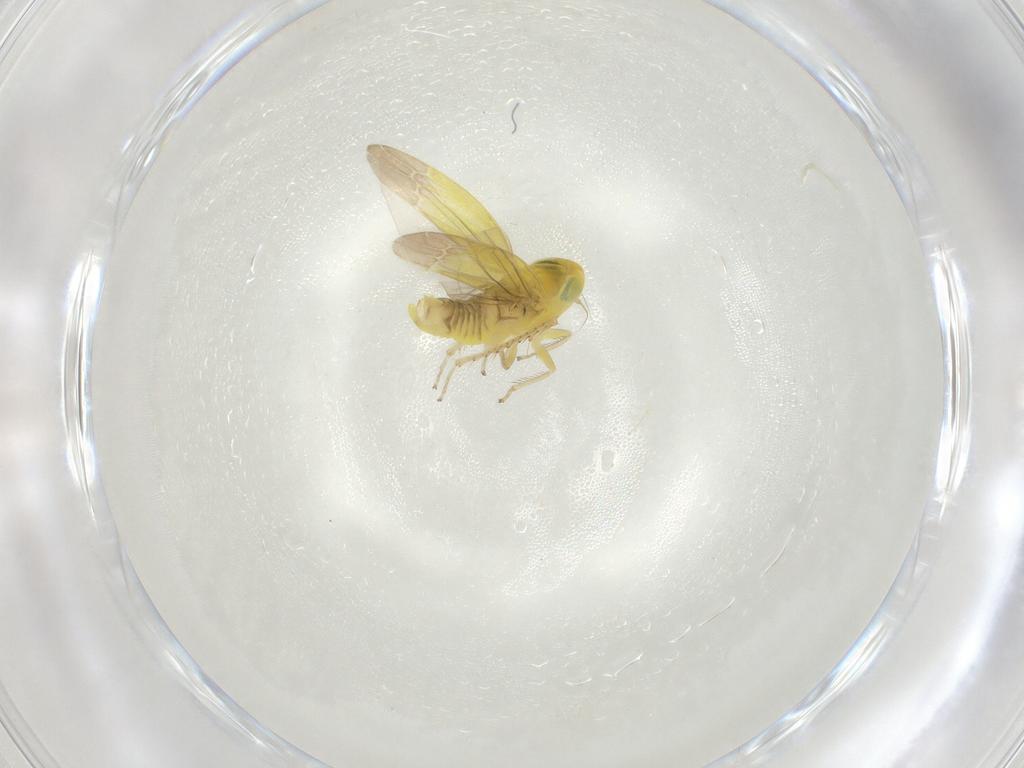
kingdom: Animalia
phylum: Arthropoda
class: Insecta
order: Hemiptera
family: Cicadellidae
